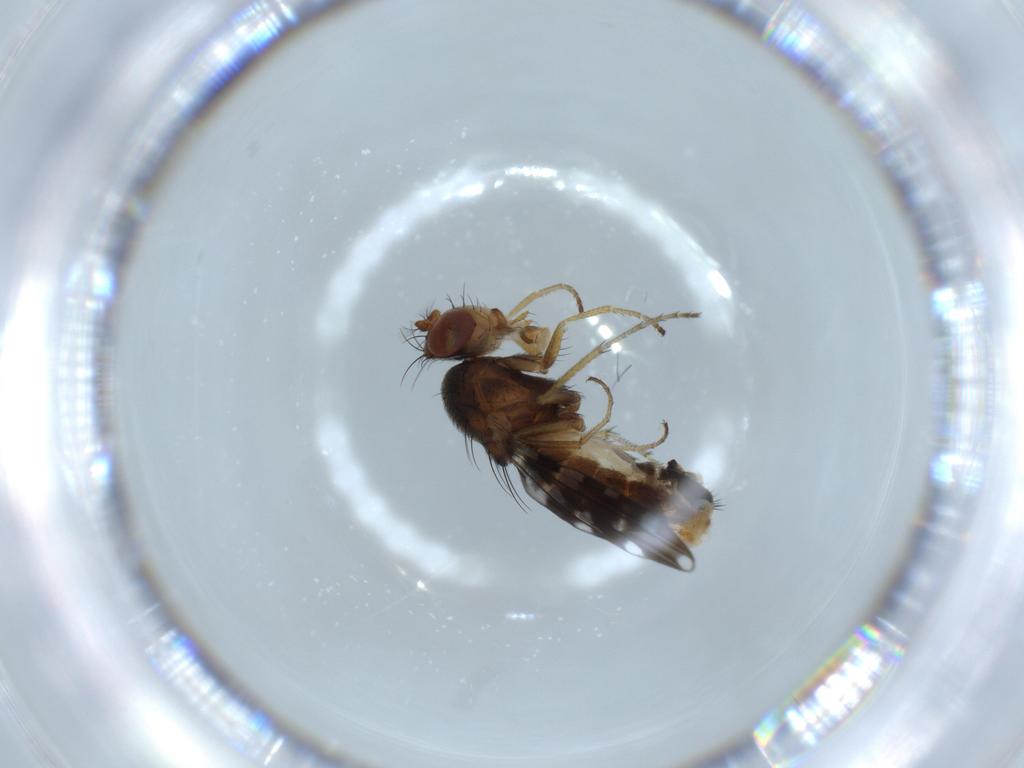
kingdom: Animalia
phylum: Arthropoda
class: Insecta
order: Diptera
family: Ephydridae
